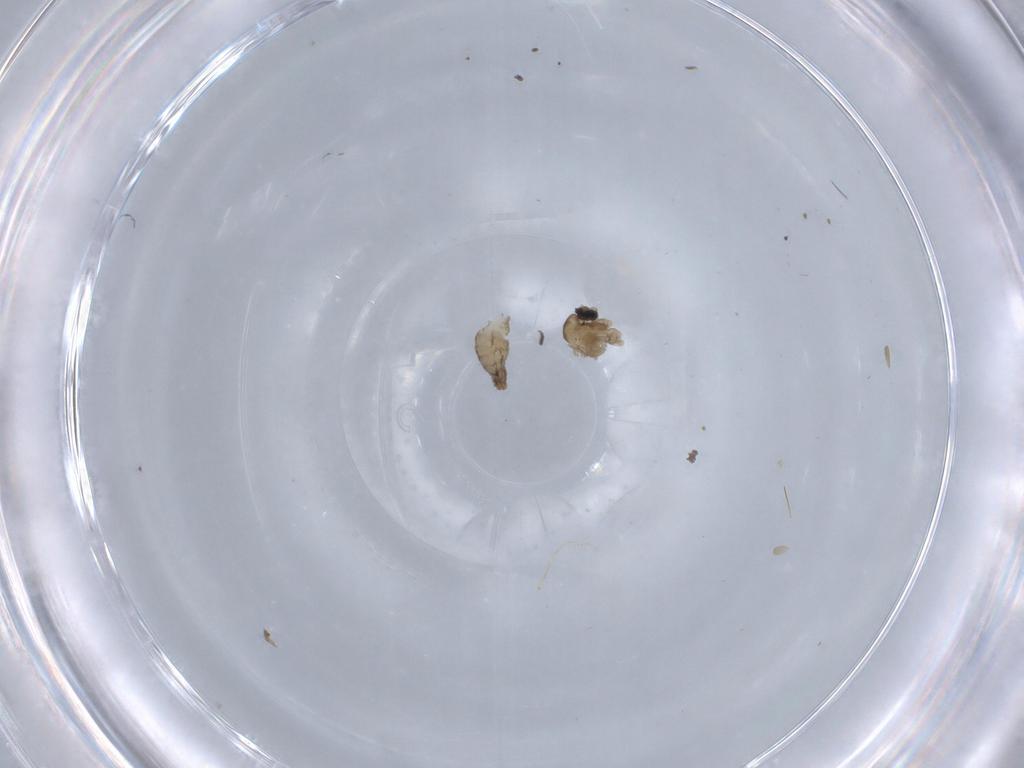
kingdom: Animalia
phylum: Arthropoda
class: Insecta
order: Diptera
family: Cecidomyiidae
